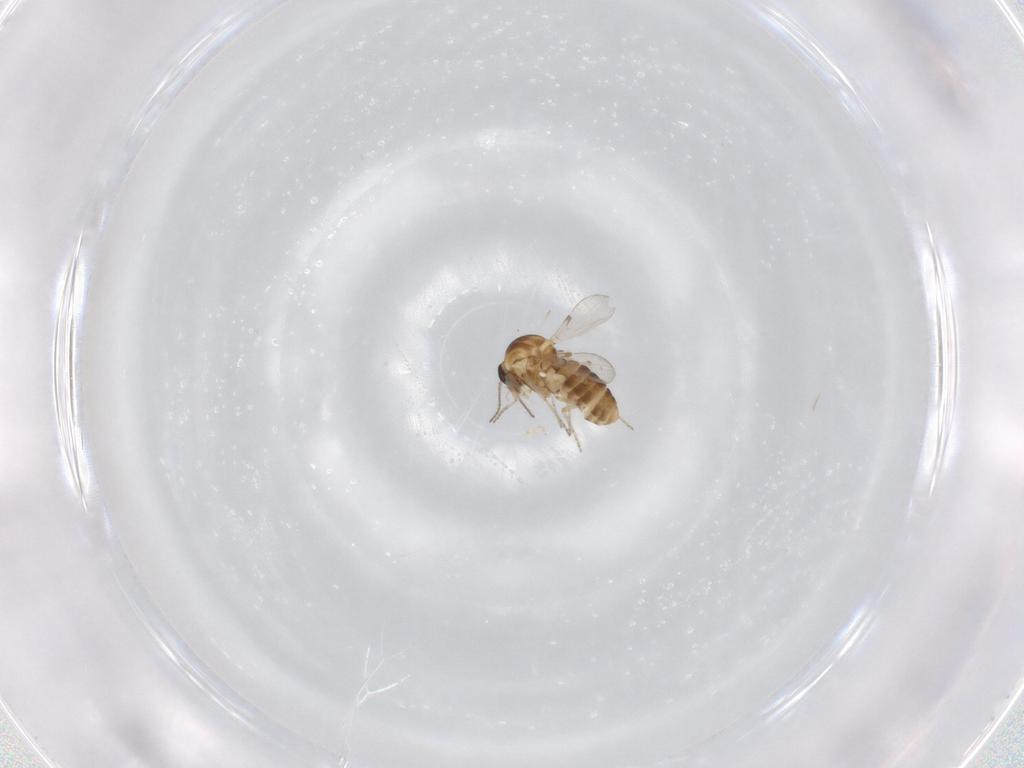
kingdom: Animalia
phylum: Arthropoda
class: Insecta
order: Diptera
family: Ceratopogonidae
